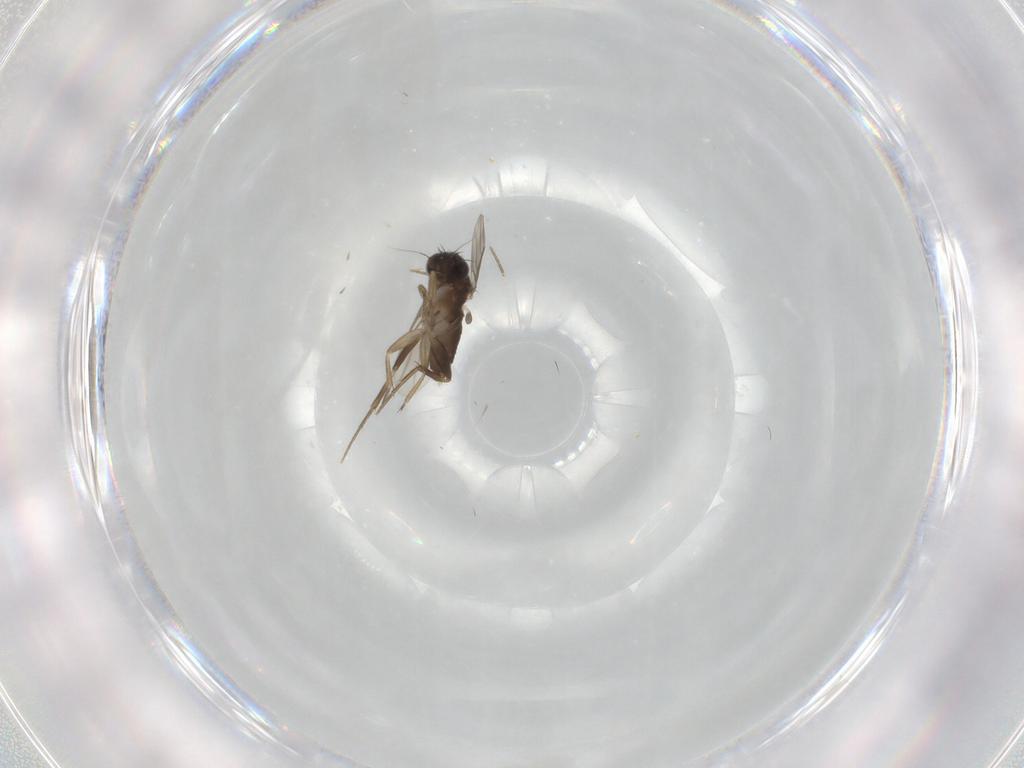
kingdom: Animalia
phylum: Arthropoda
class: Insecta
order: Diptera
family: Phoridae
